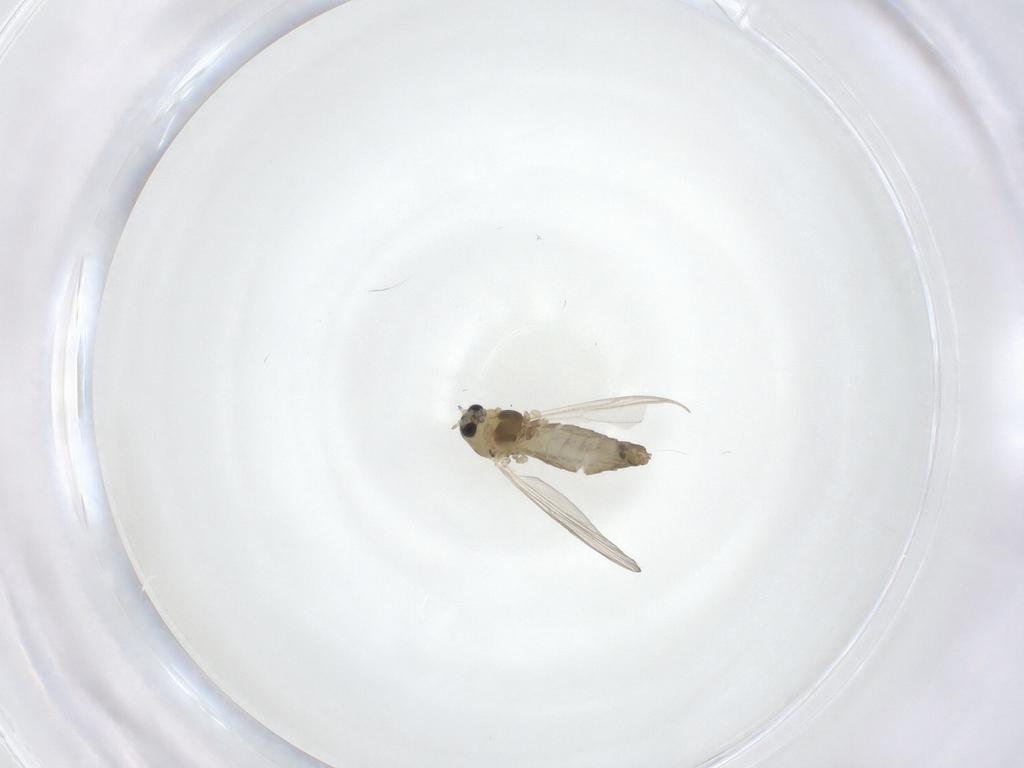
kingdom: Animalia
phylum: Arthropoda
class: Insecta
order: Diptera
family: Chironomidae
